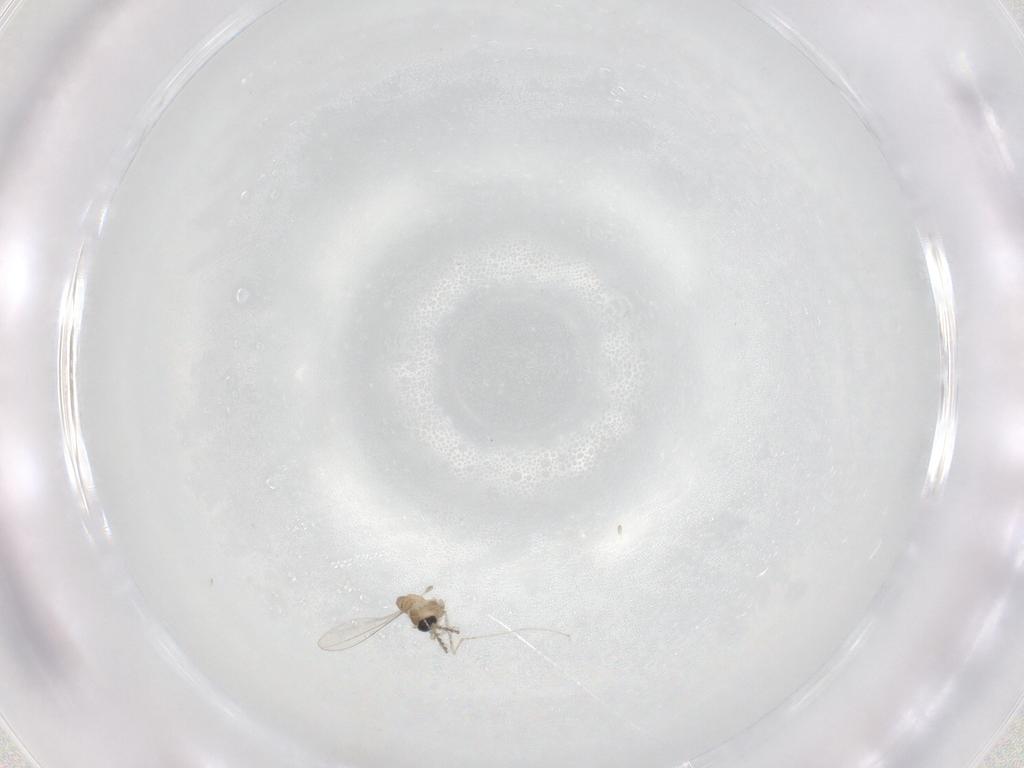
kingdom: Animalia
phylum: Arthropoda
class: Insecta
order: Diptera
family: Cecidomyiidae
